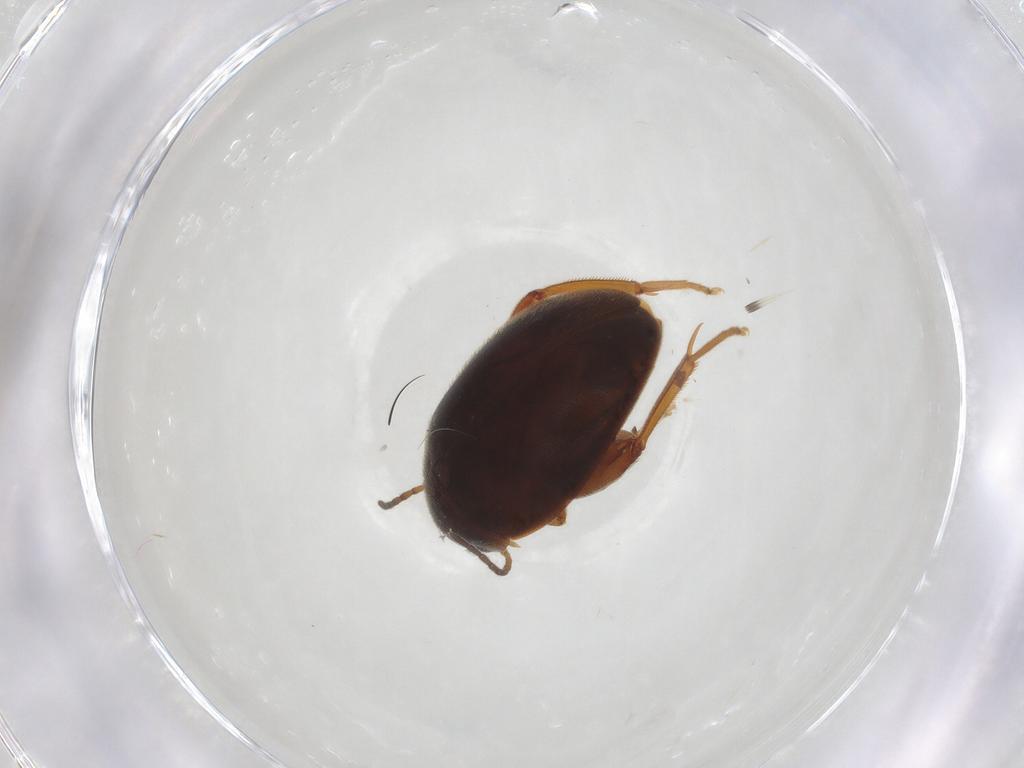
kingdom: Animalia
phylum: Arthropoda
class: Insecta
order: Coleoptera
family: Scirtidae
